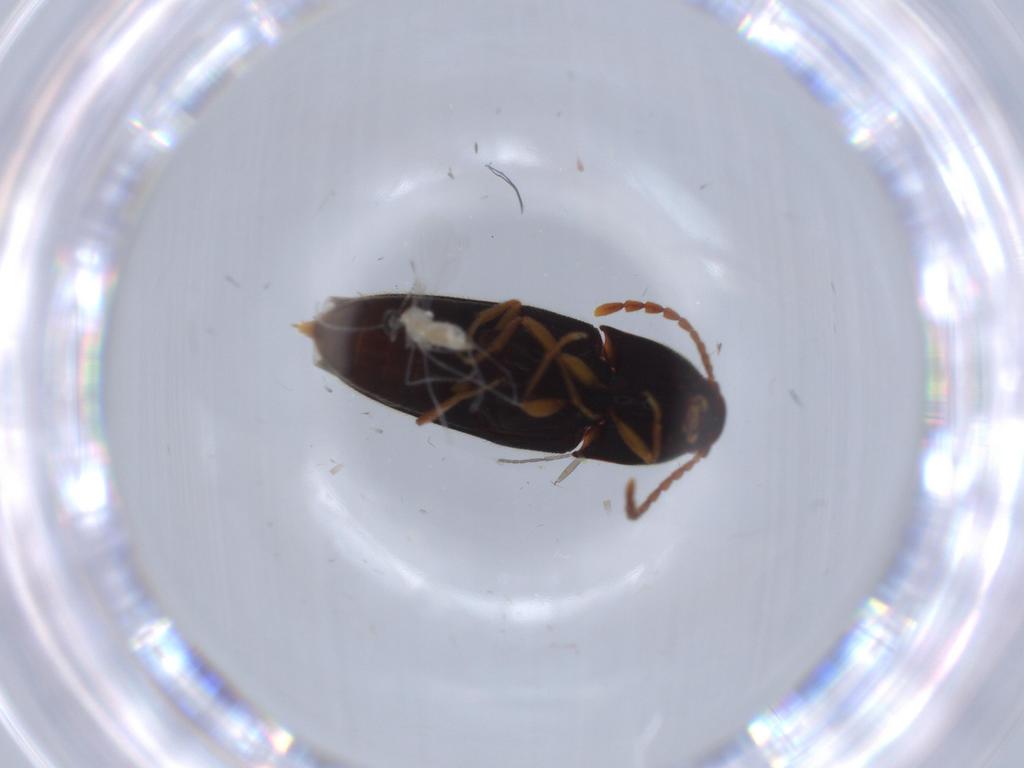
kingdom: Animalia
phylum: Arthropoda
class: Insecta
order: Coleoptera
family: Elateridae
